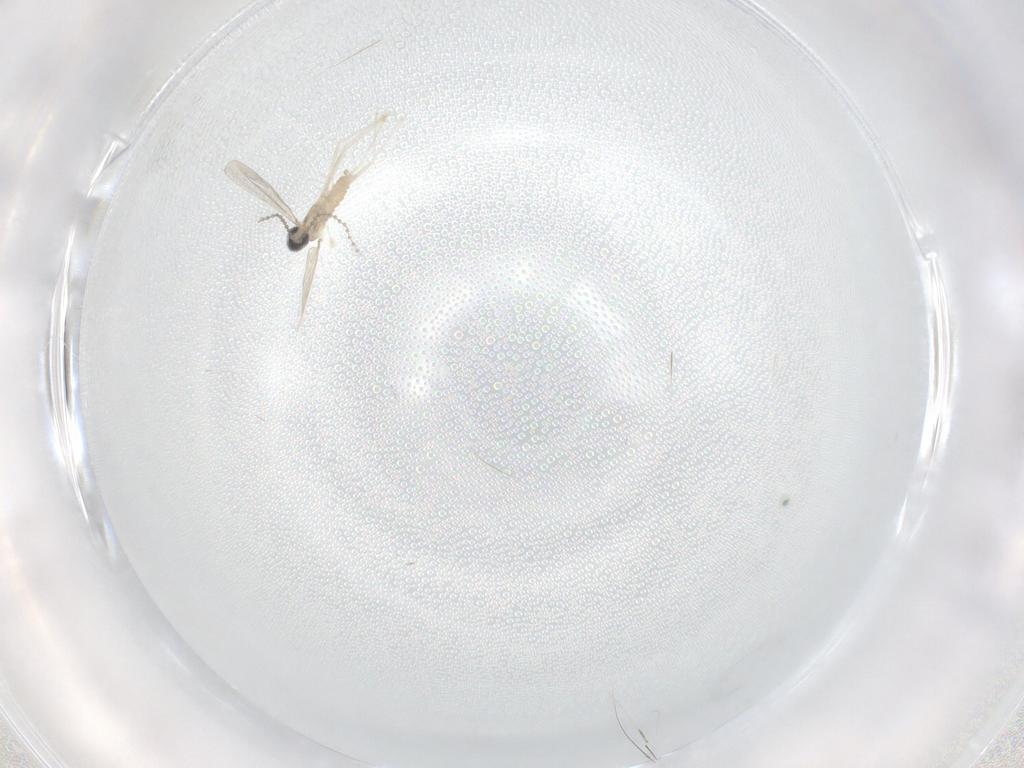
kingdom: Animalia
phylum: Arthropoda
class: Insecta
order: Diptera
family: Cecidomyiidae
